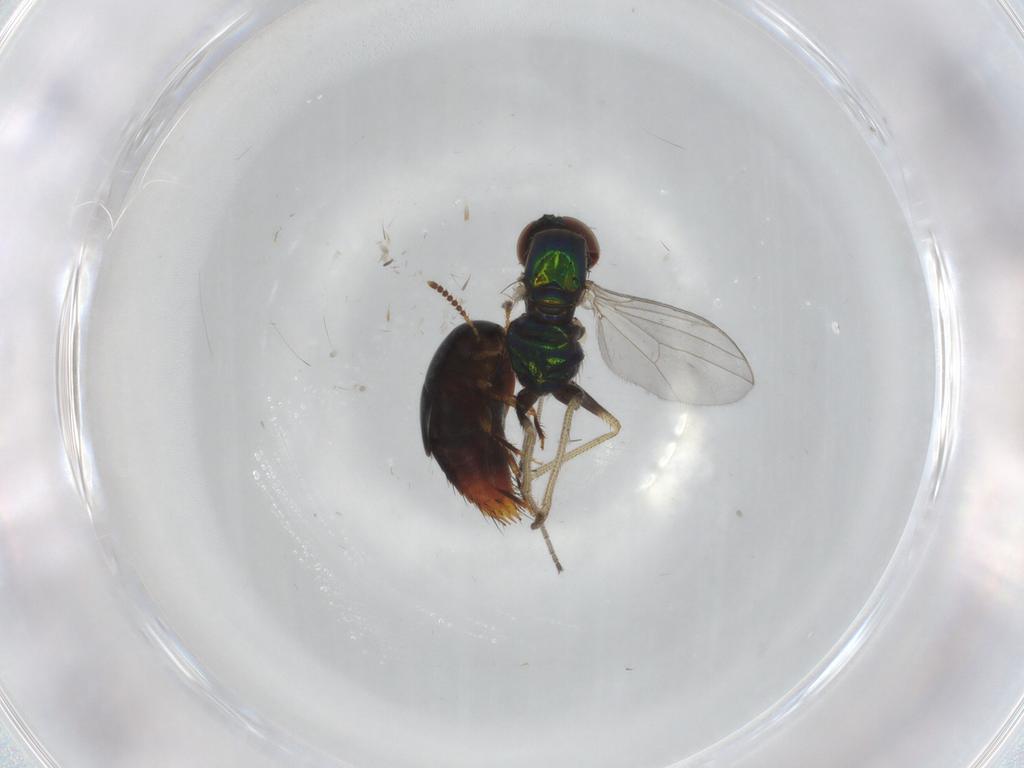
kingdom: Animalia
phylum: Arthropoda
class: Insecta
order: Diptera
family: Dolichopodidae
